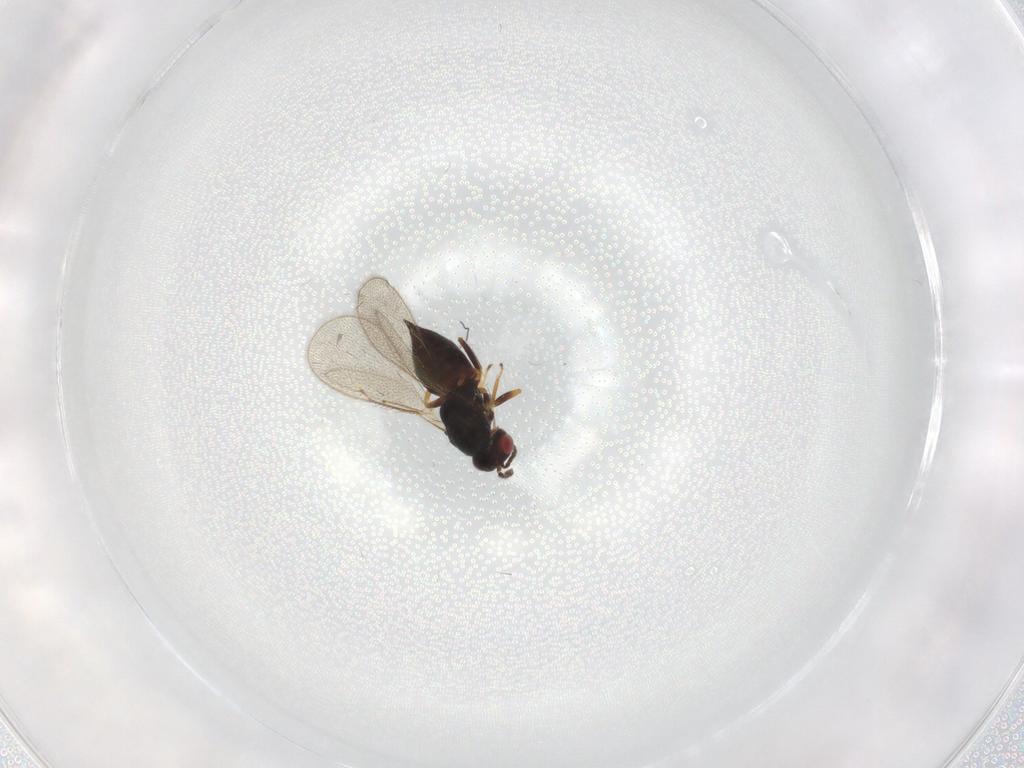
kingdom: Animalia
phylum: Arthropoda
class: Insecta
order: Hymenoptera
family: Eulophidae
